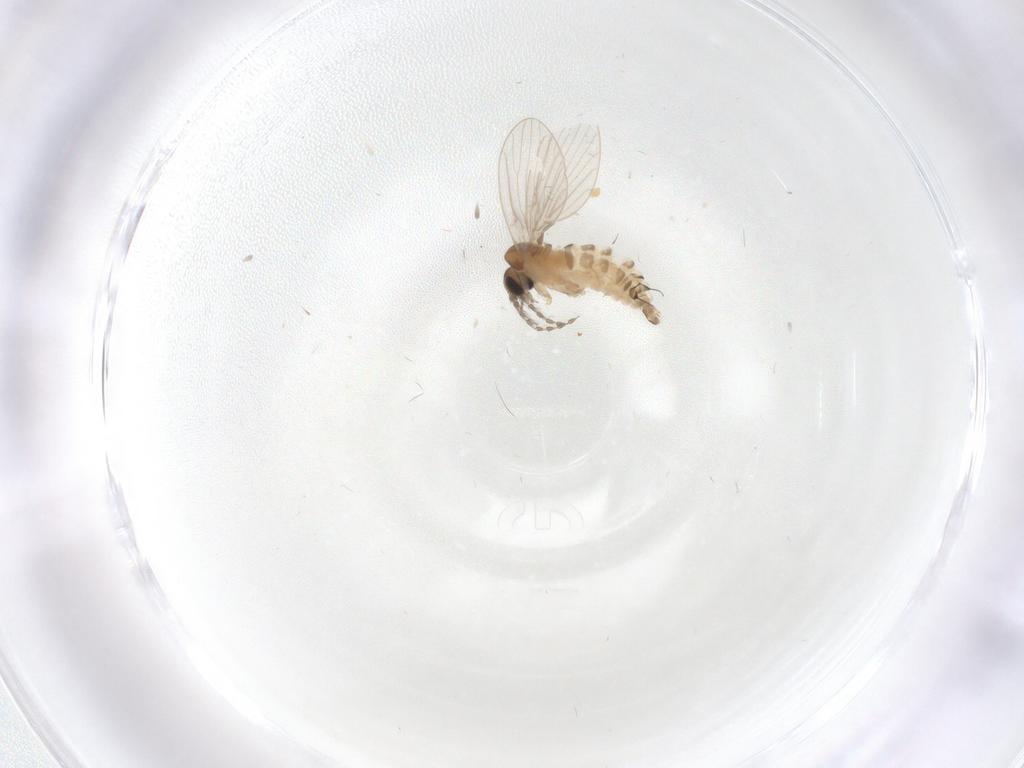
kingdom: Animalia
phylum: Arthropoda
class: Insecta
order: Diptera
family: Psychodidae
